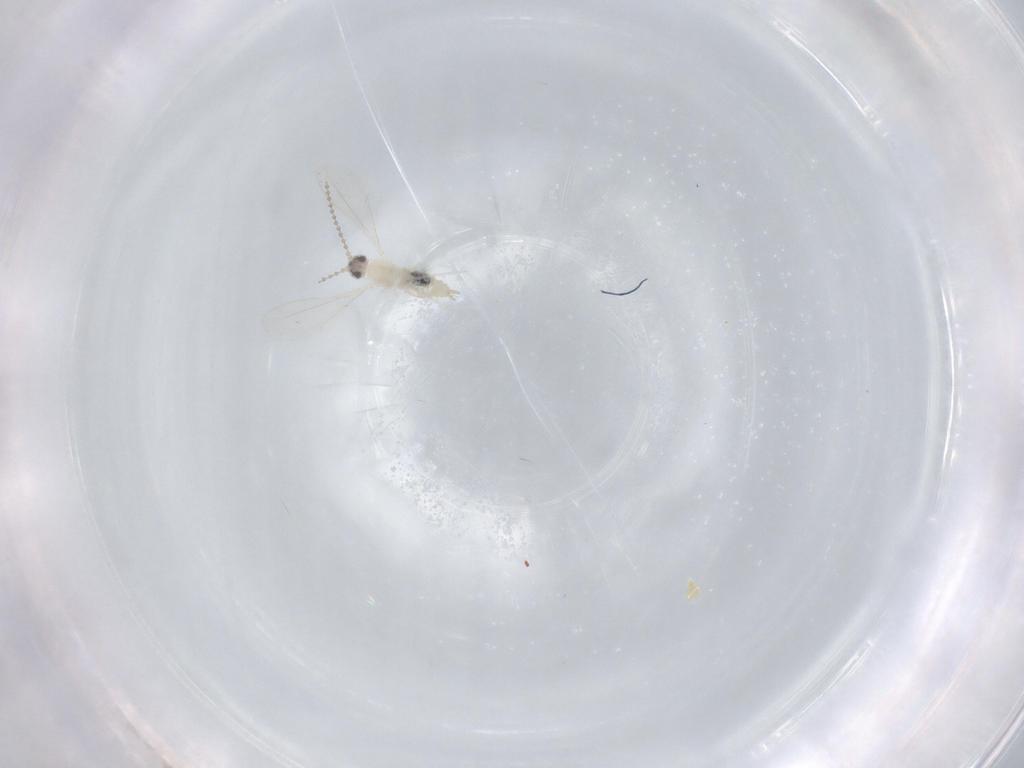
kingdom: Animalia
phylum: Arthropoda
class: Insecta
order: Diptera
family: Cecidomyiidae
